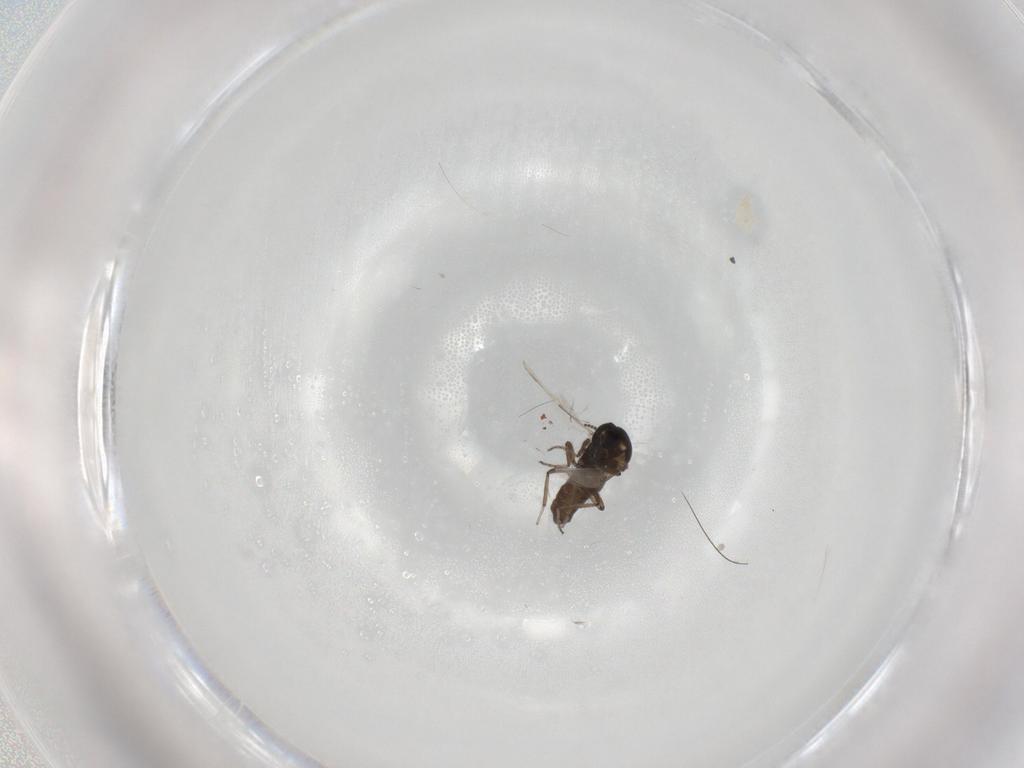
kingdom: Animalia
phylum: Arthropoda
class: Insecta
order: Diptera
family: Ceratopogonidae
